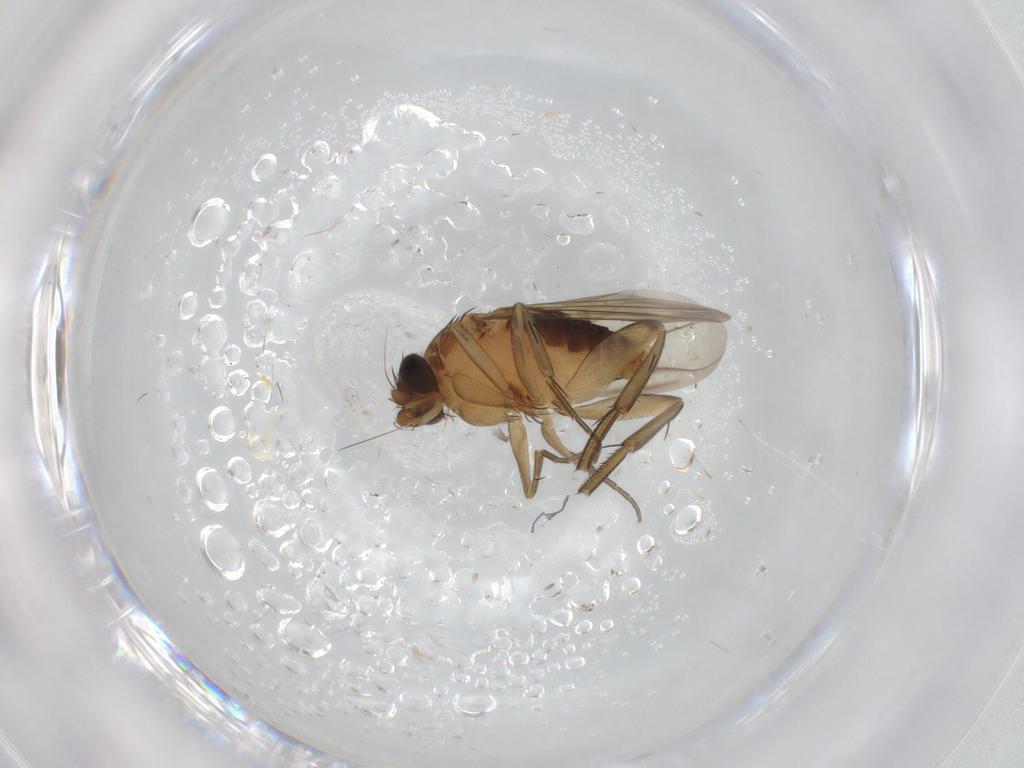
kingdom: Animalia
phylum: Arthropoda
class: Insecta
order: Diptera
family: Phoridae
